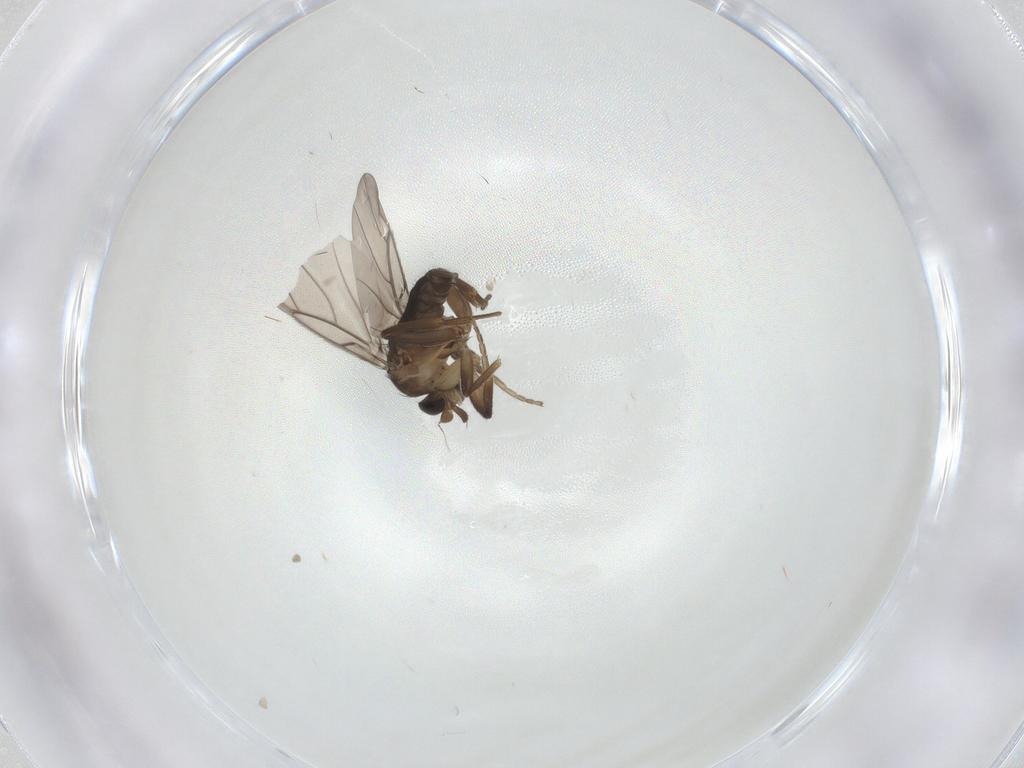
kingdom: Animalia
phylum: Arthropoda
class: Insecta
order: Diptera
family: Phoridae
